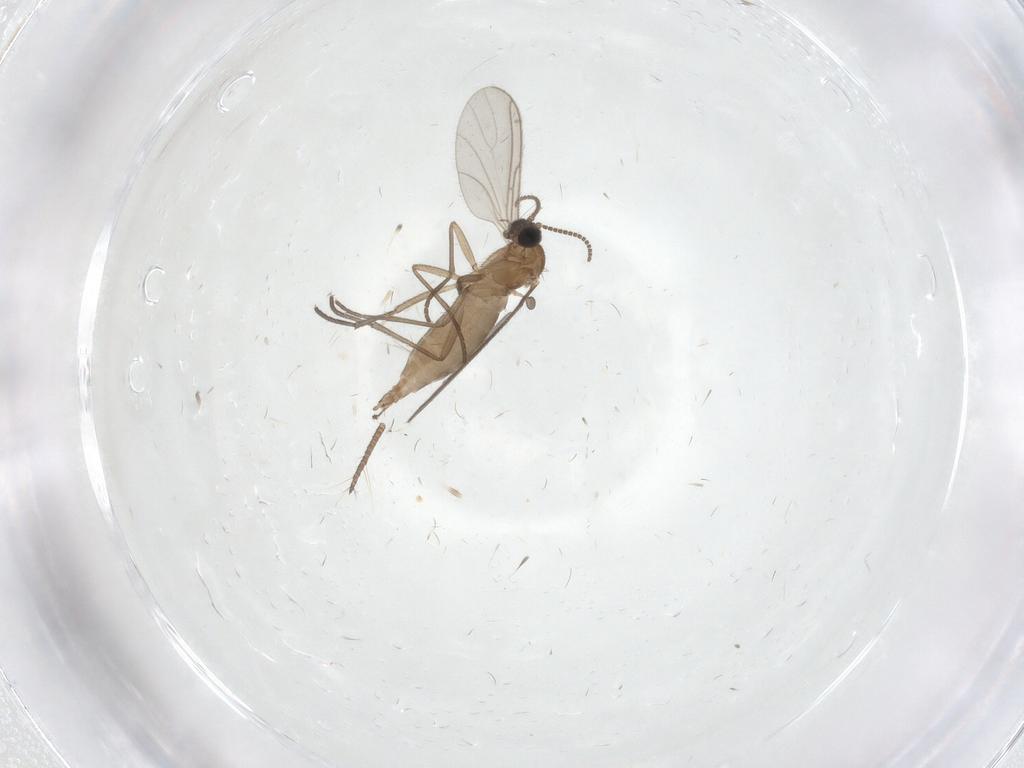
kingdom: Animalia
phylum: Arthropoda
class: Insecta
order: Diptera
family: Sciaridae
